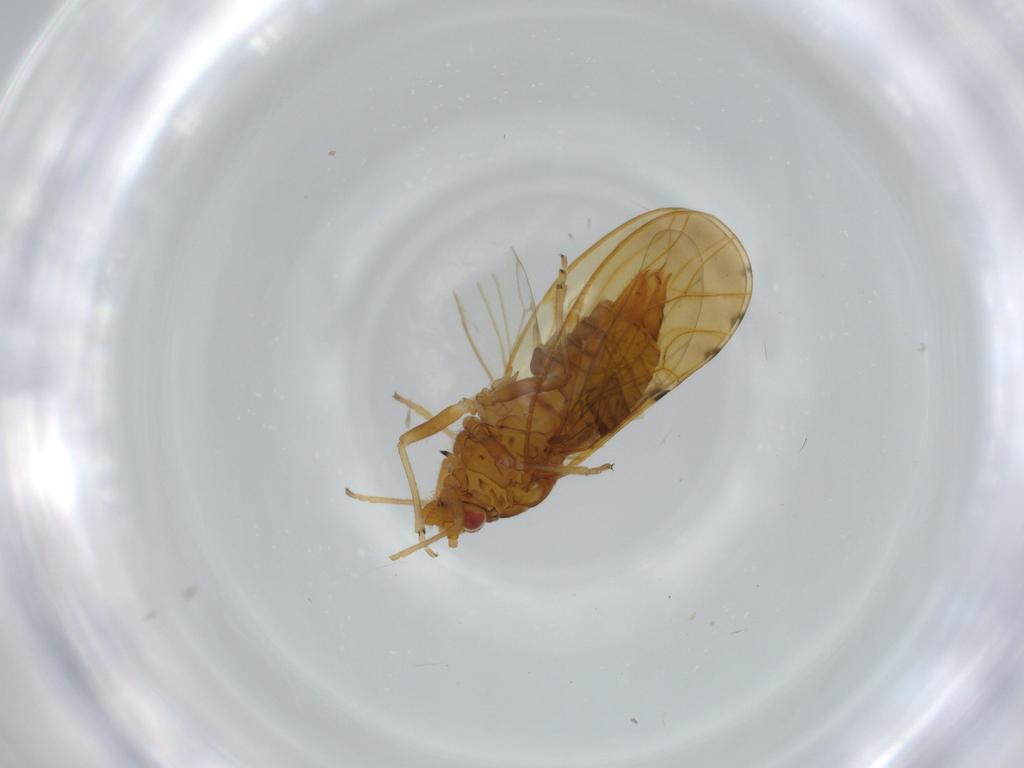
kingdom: Animalia
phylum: Arthropoda
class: Insecta
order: Hemiptera
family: Psylloidea_incertae_sedis
